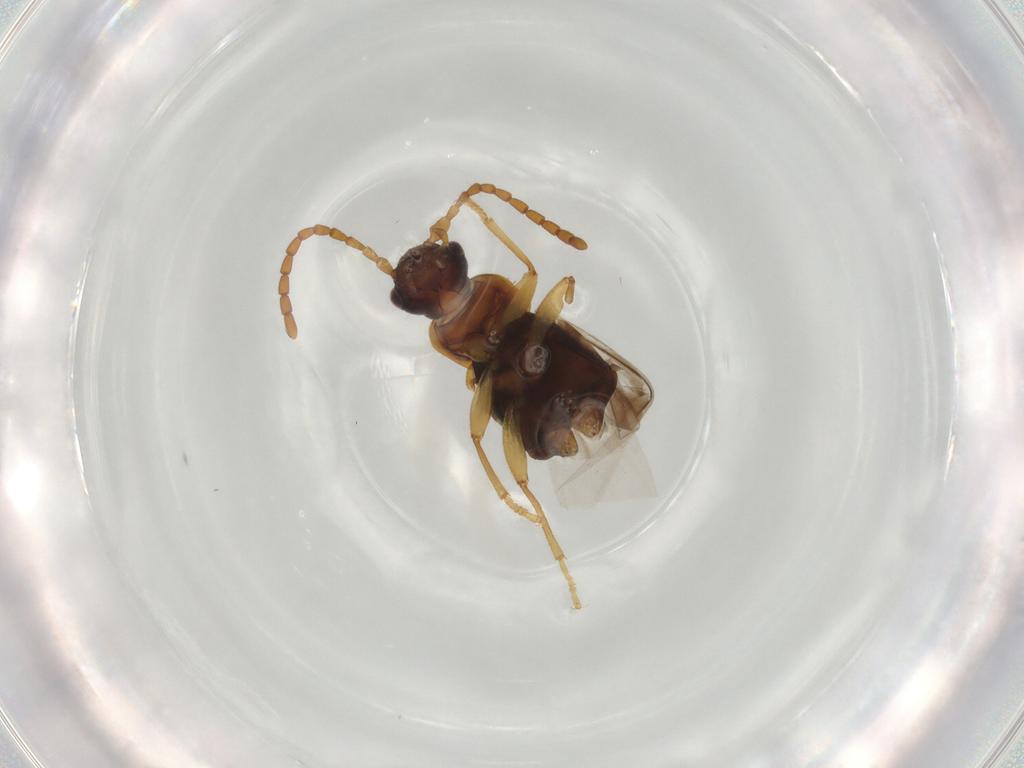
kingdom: Animalia
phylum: Arthropoda
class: Insecta
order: Coleoptera
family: Staphylinidae
